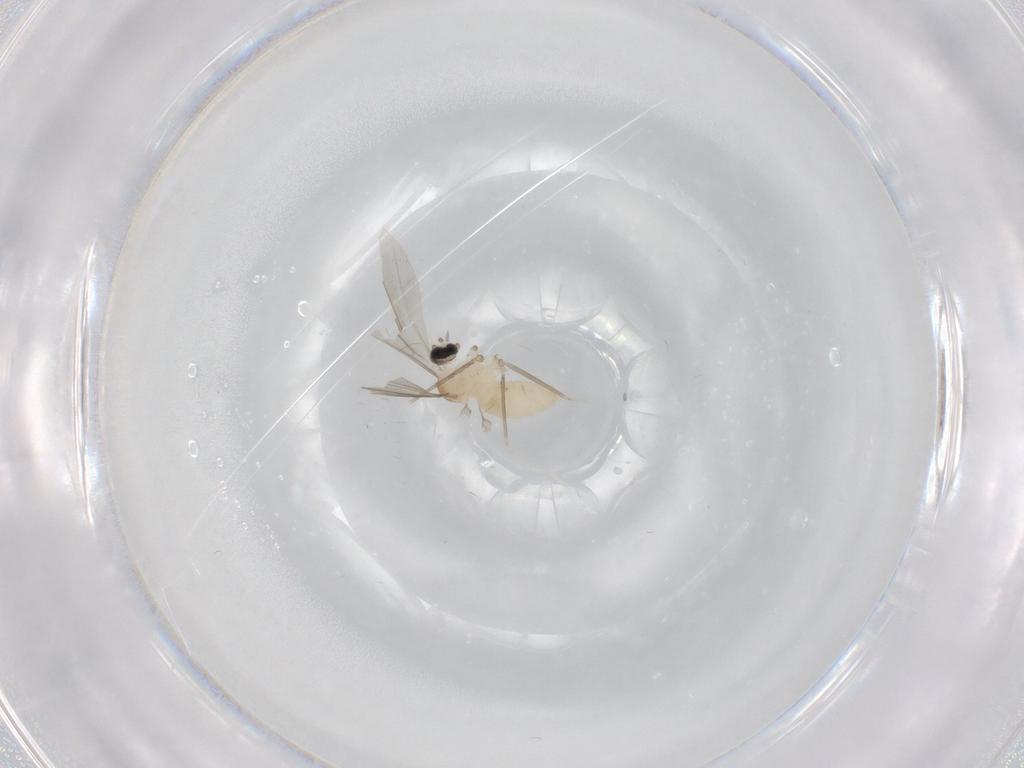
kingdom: Animalia
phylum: Arthropoda
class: Insecta
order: Diptera
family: Cecidomyiidae
